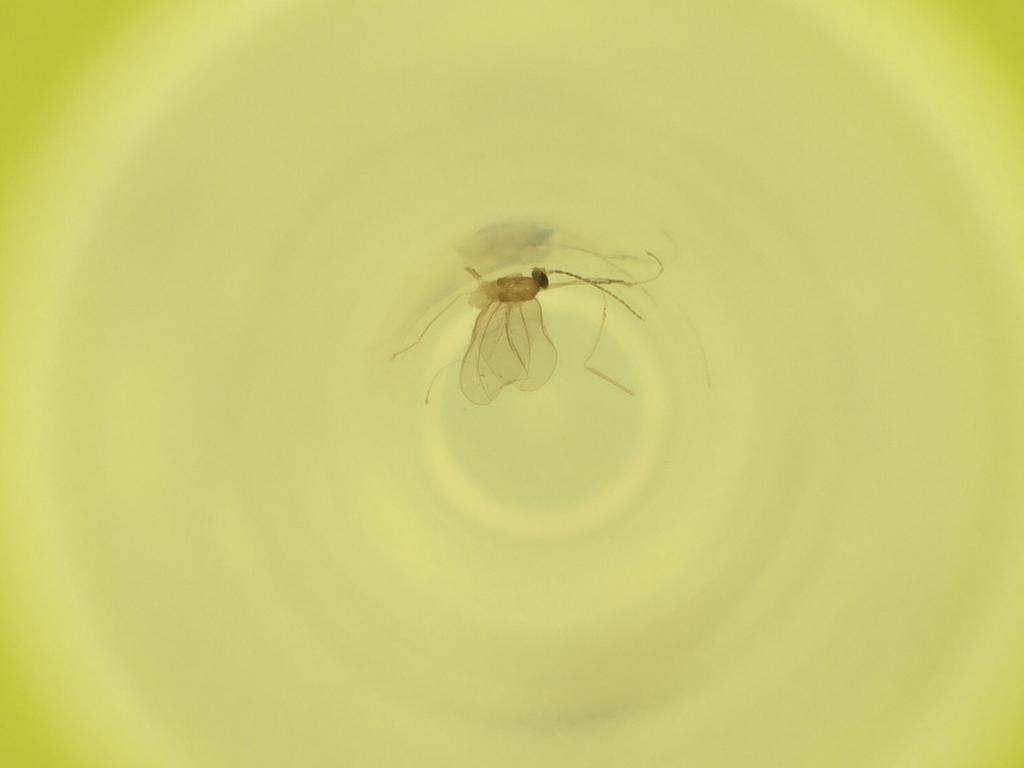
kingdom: Animalia
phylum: Arthropoda
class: Insecta
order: Diptera
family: Cecidomyiidae
